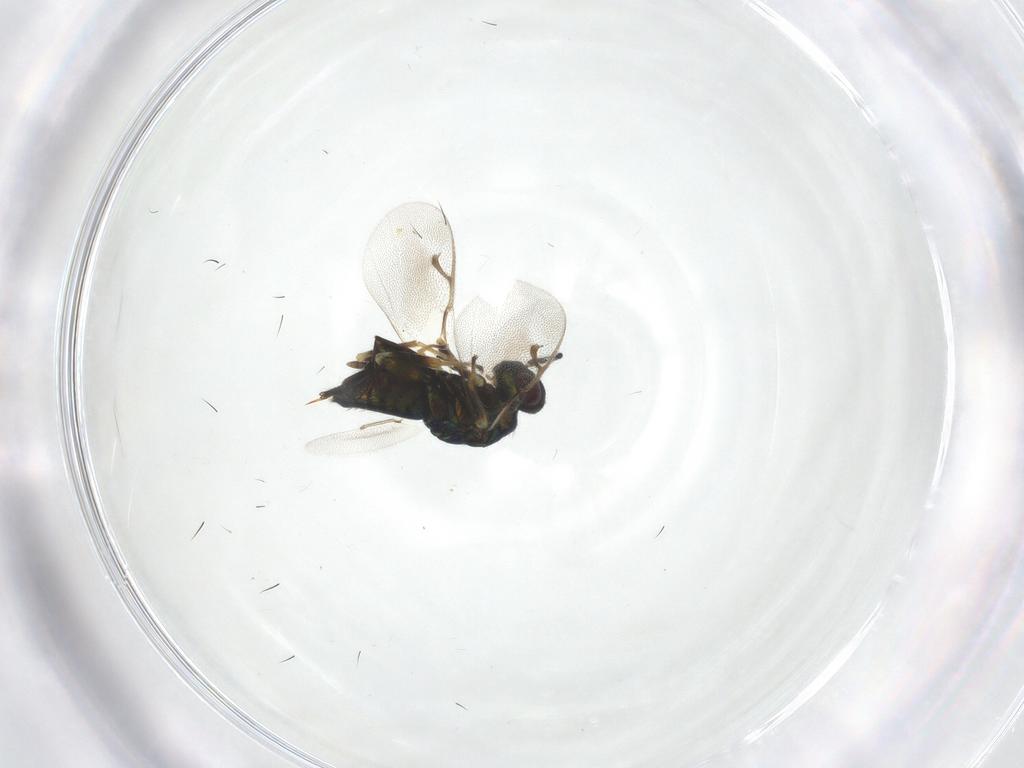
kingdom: Animalia
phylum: Arthropoda
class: Insecta
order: Hymenoptera
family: Pteromalidae
